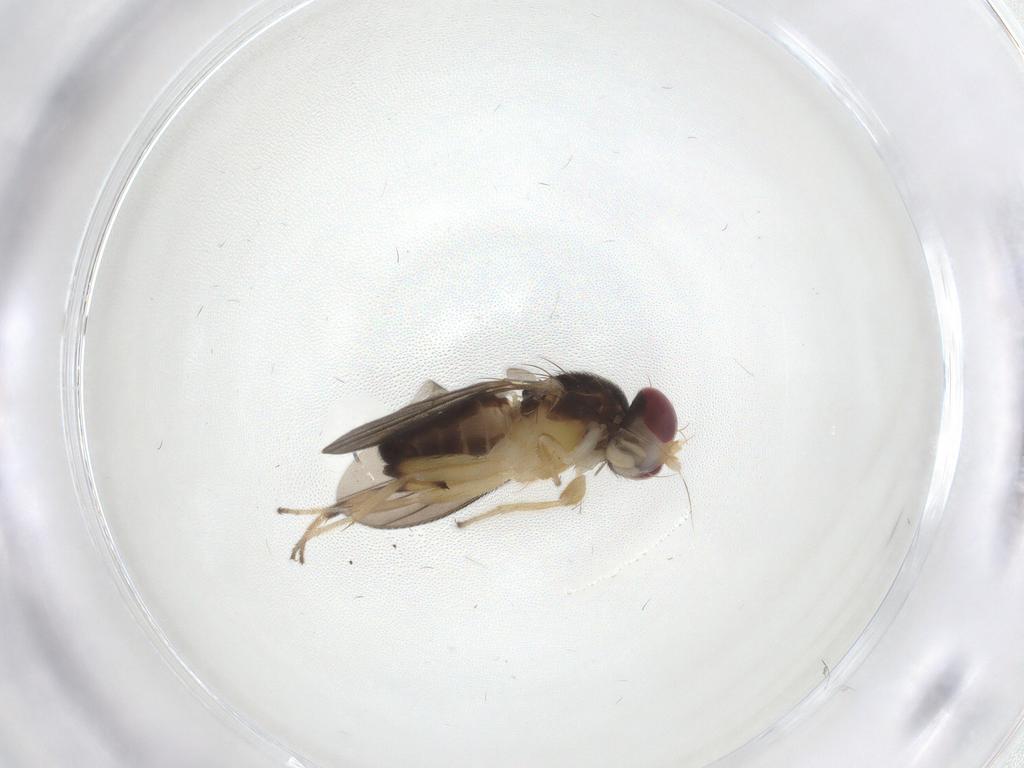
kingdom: Animalia
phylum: Arthropoda
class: Insecta
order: Diptera
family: Clusiidae
